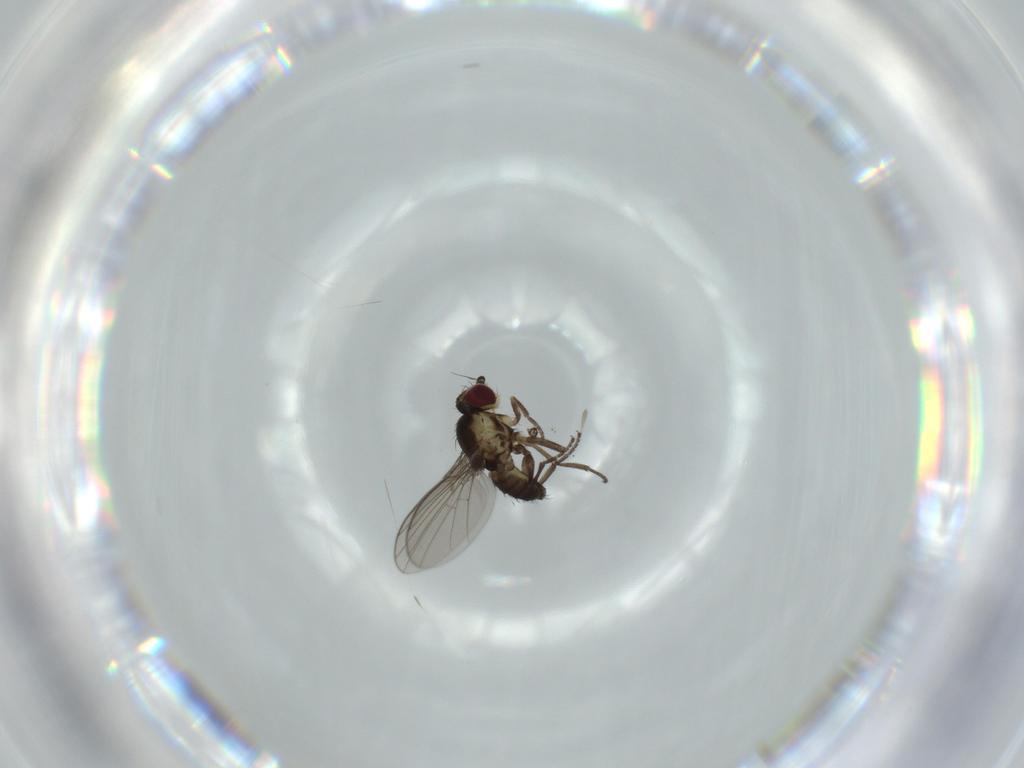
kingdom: Animalia
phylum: Arthropoda
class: Insecta
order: Diptera
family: Agromyzidae
